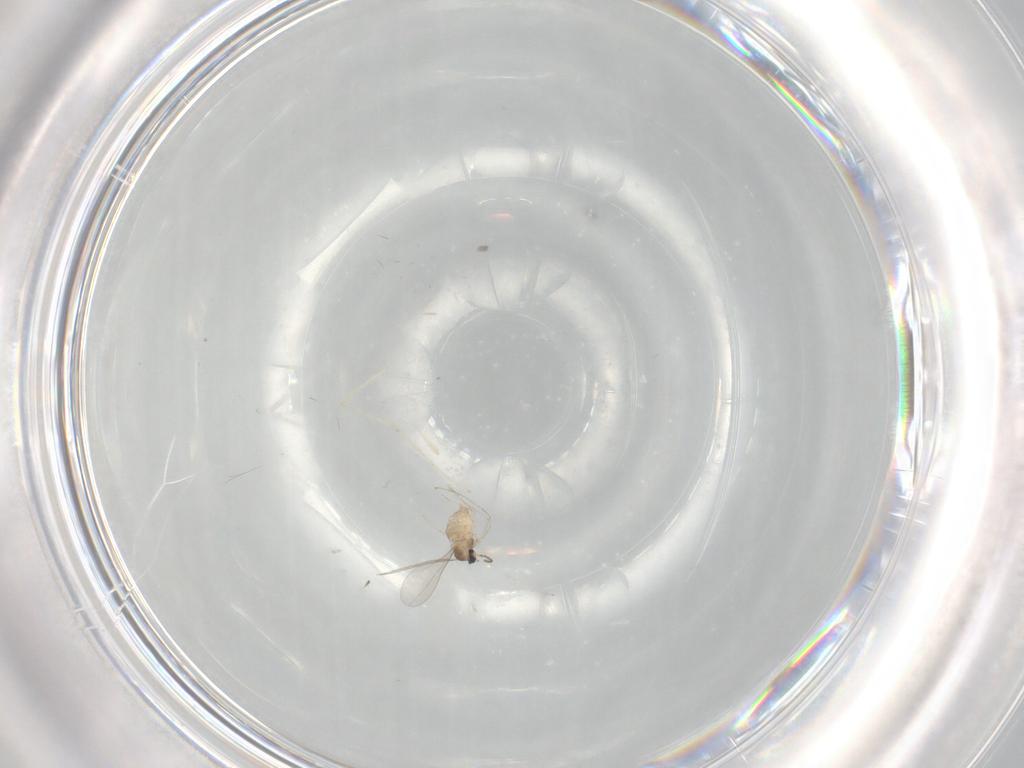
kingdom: Animalia
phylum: Arthropoda
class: Insecta
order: Diptera
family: Cecidomyiidae
